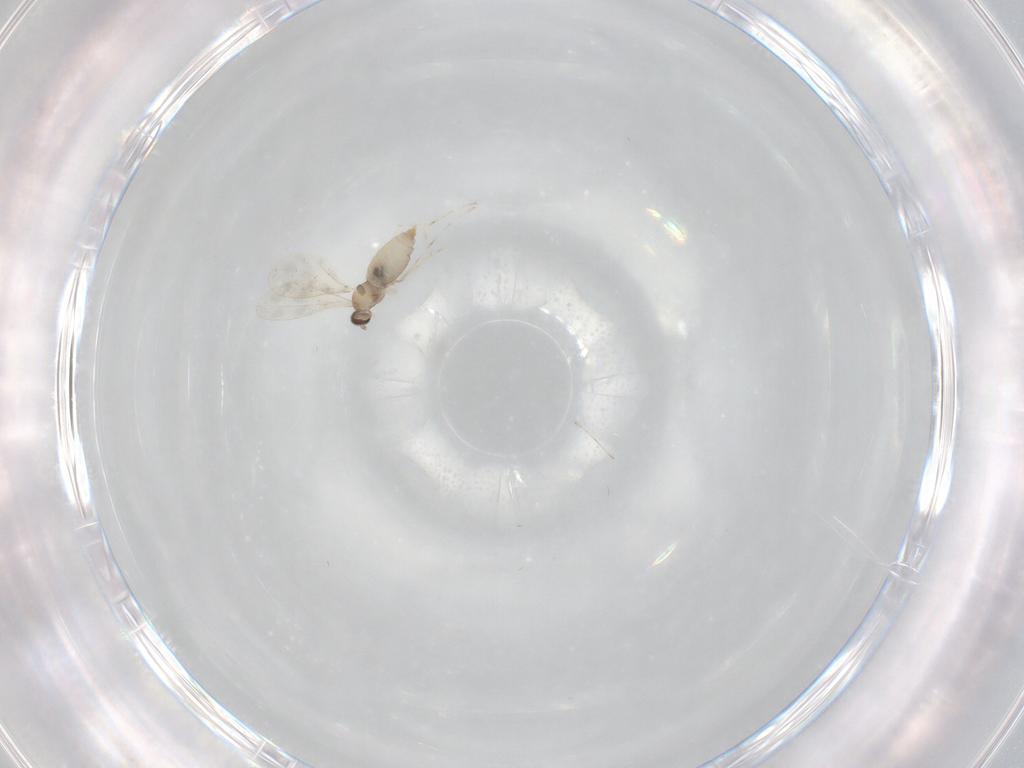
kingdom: Animalia
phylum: Arthropoda
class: Insecta
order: Diptera
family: Cecidomyiidae
